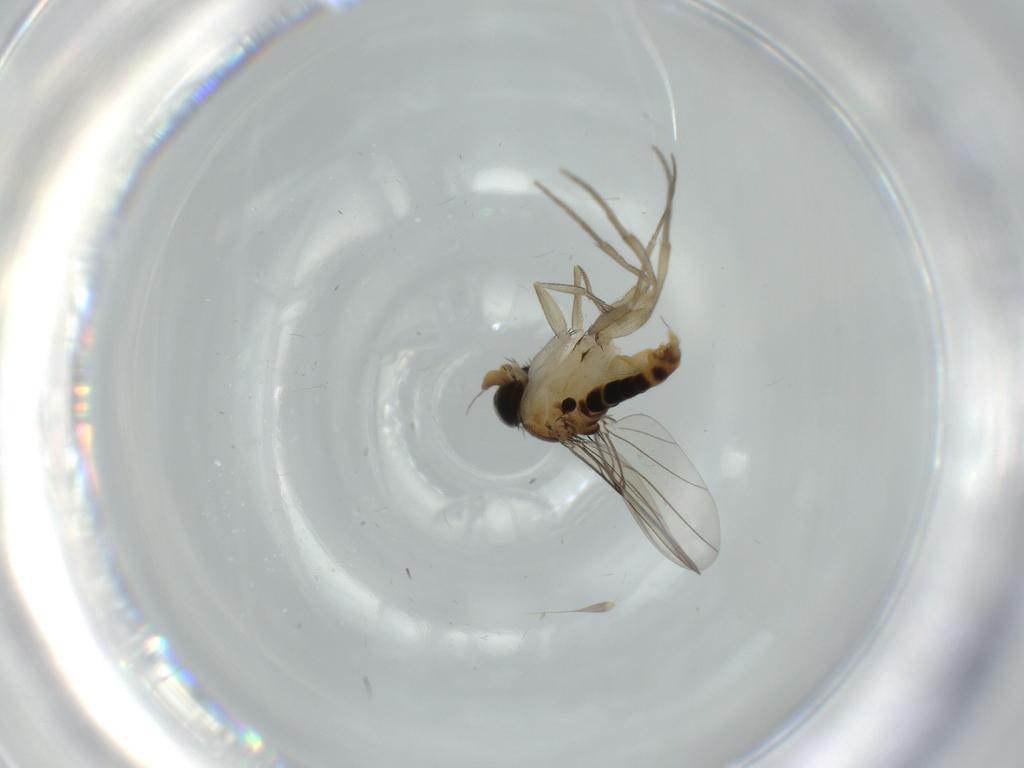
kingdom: Animalia
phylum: Arthropoda
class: Insecta
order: Diptera
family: Phoridae
